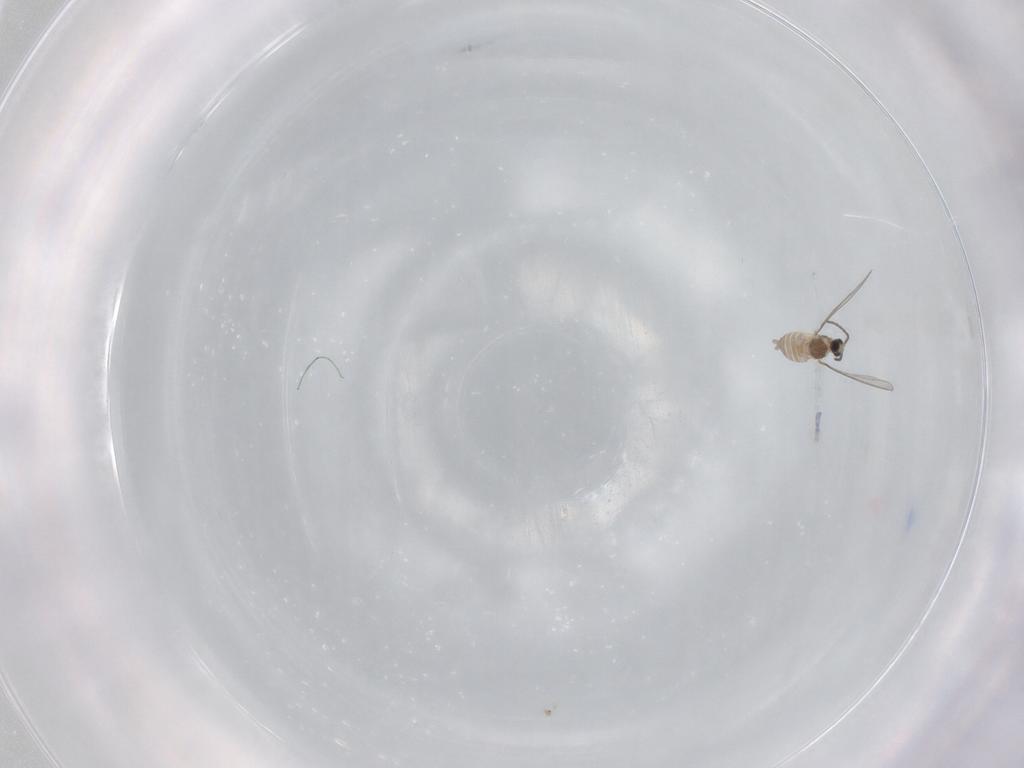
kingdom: Animalia
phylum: Arthropoda
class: Insecta
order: Diptera
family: Cecidomyiidae
